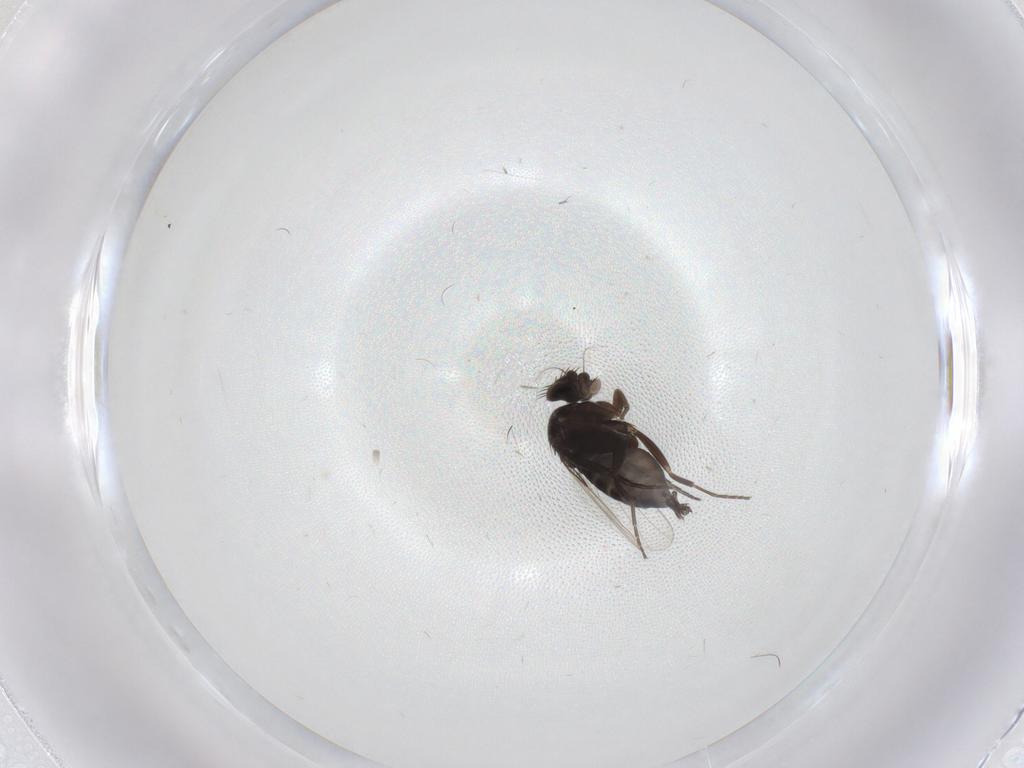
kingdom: Animalia
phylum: Arthropoda
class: Insecta
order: Diptera
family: Phoridae
